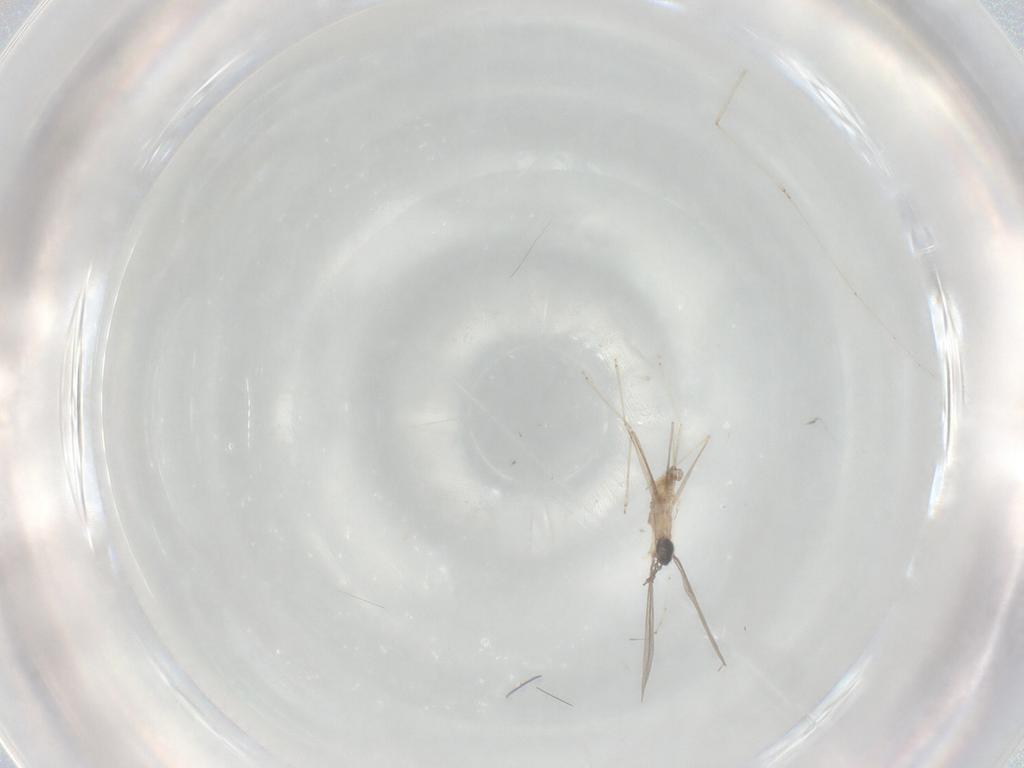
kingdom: Animalia
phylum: Arthropoda
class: Insecta
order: Diptera
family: Cecidomyiidae
